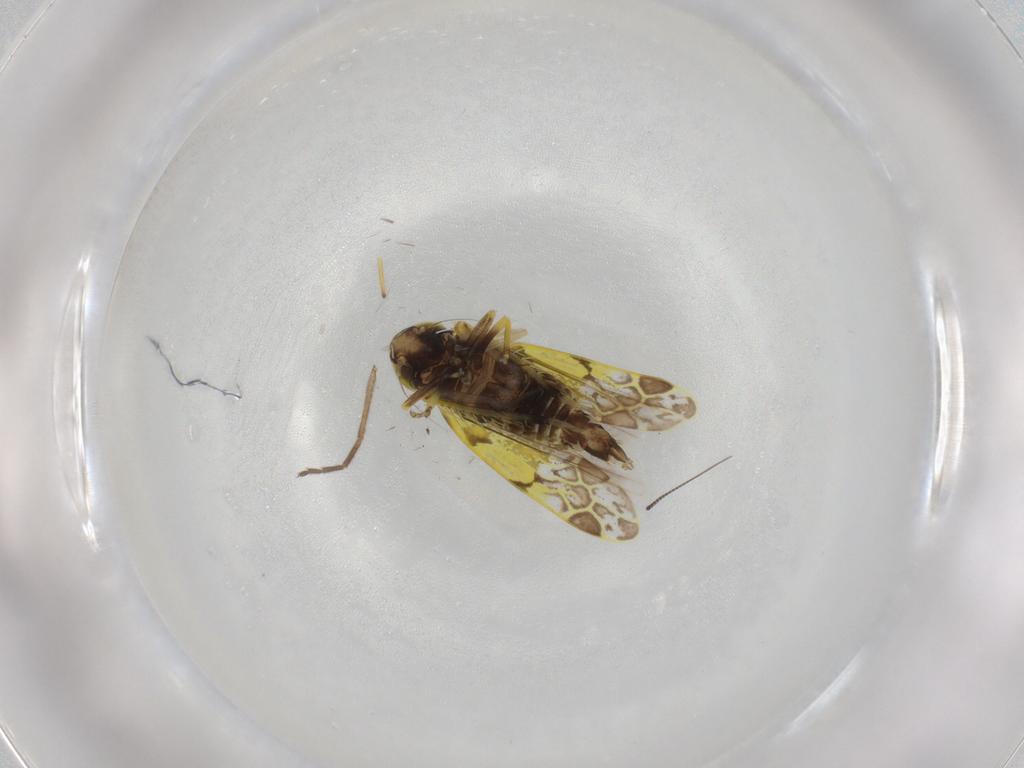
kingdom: Animalia
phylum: Arthropoda
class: Insecta
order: Hemiptera
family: Cicadellidae
